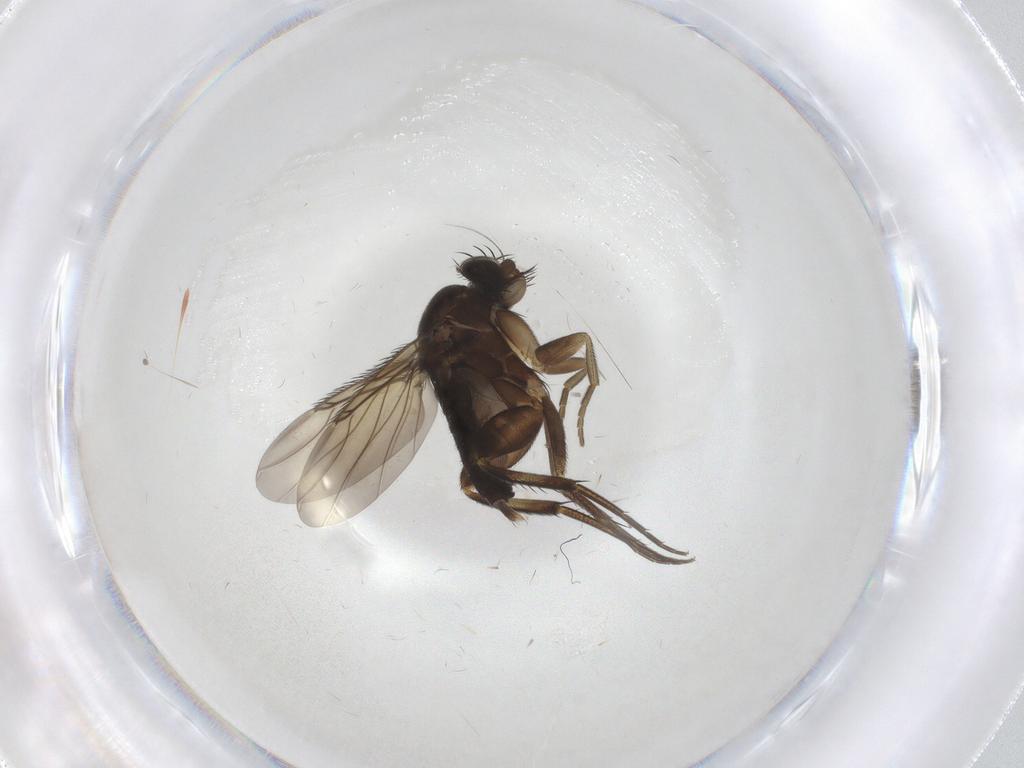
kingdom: Animalia
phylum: Arthropoda
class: Insecta
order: Diptera
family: Phoridae
